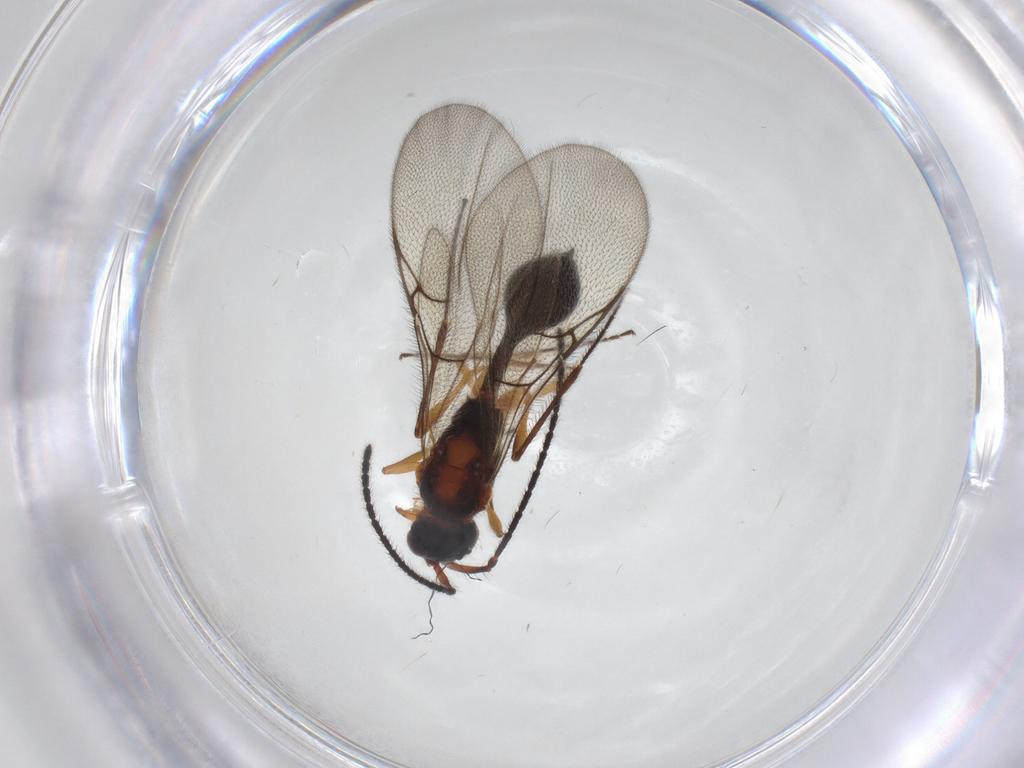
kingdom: Animalia
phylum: Arthropoda
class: Insecta
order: Hymenoptera
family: Diapriidae
